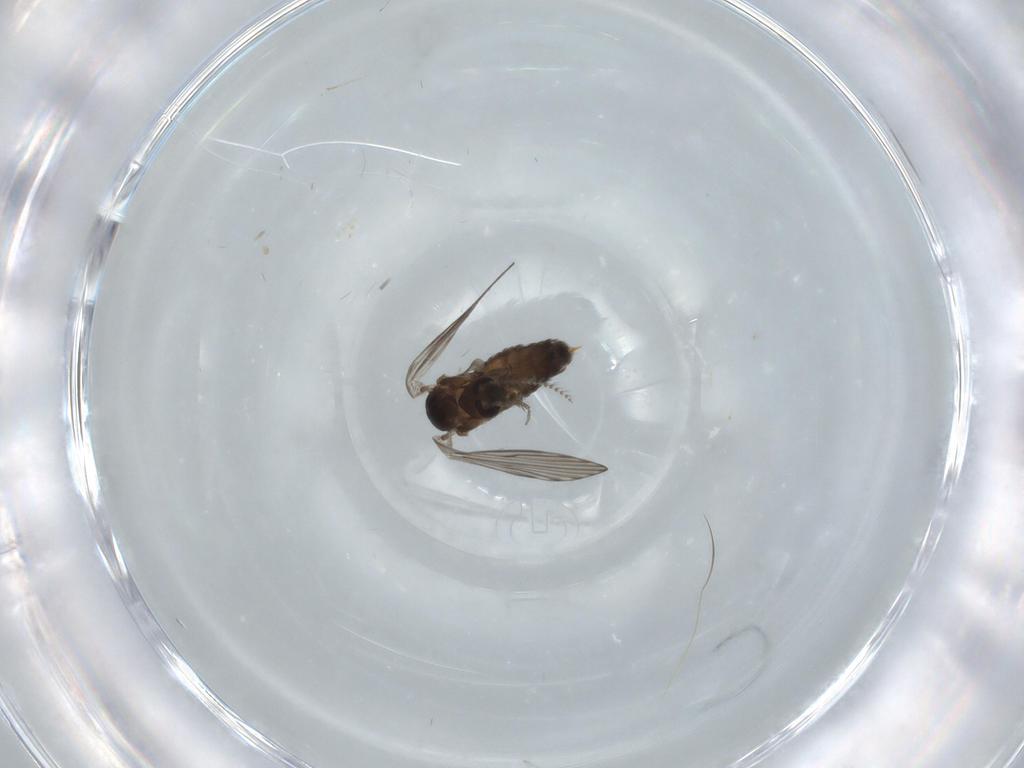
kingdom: Animalia
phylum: Arthropoda
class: Insecta
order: Diptera
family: Psychodidae
